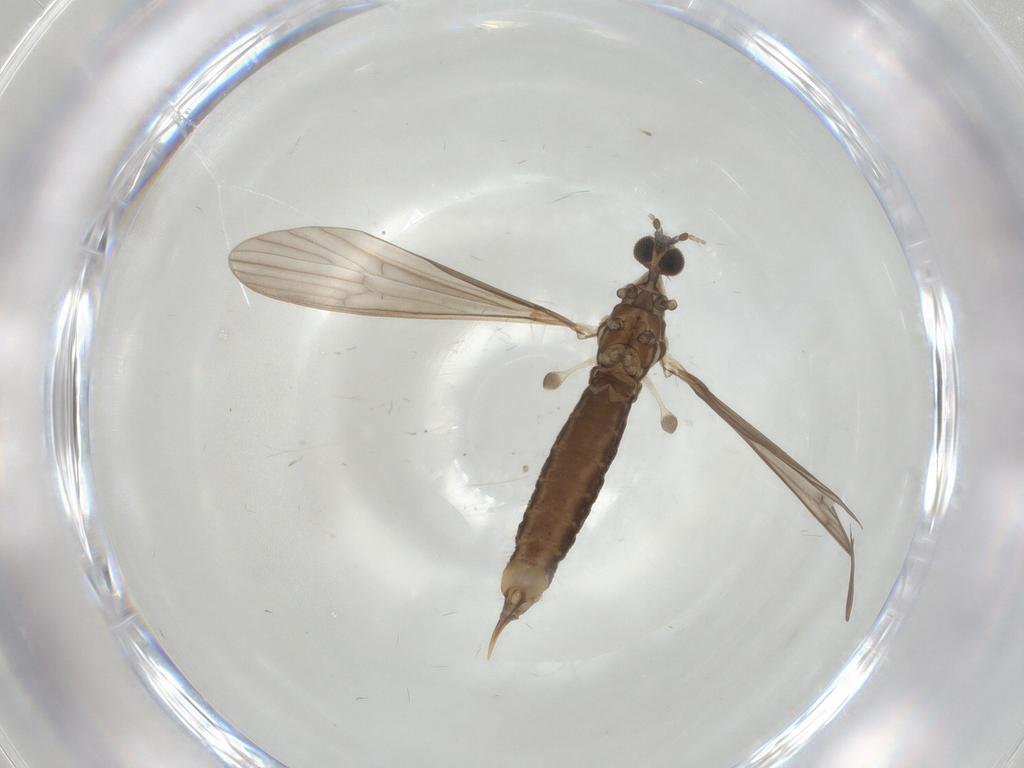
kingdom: Animalia
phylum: Arthropoda
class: Insecta
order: Diptera
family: Limoniidae
